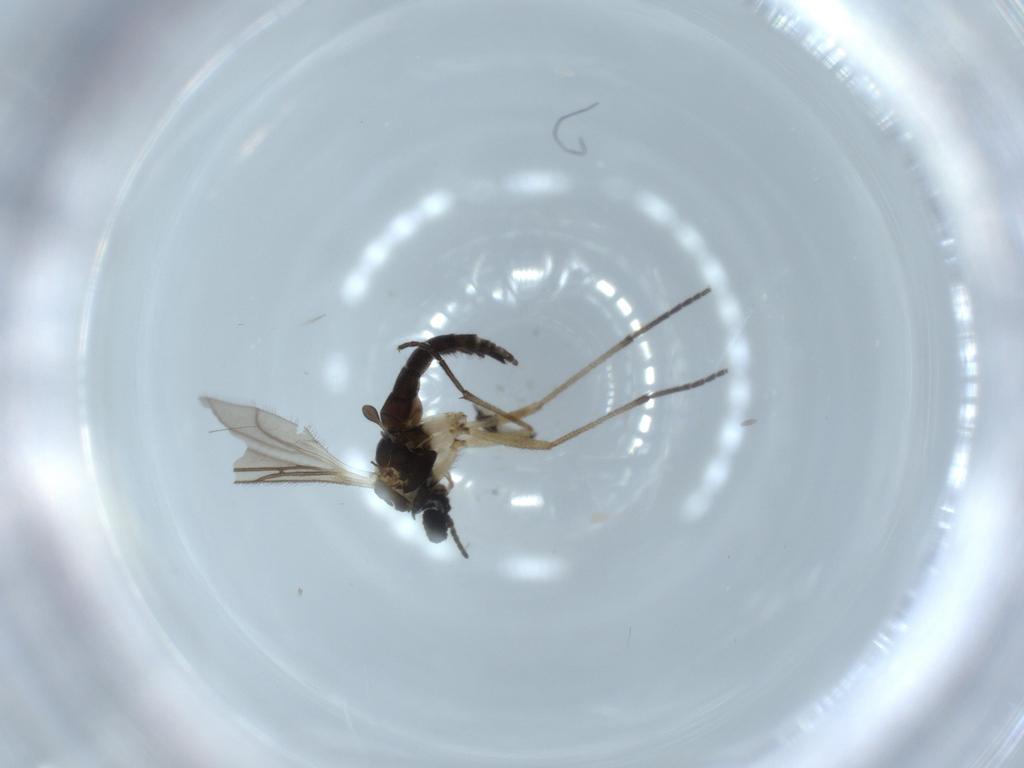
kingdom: Animalia
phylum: Arthropoda
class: Insecta
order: Diptera
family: Sciaridae
